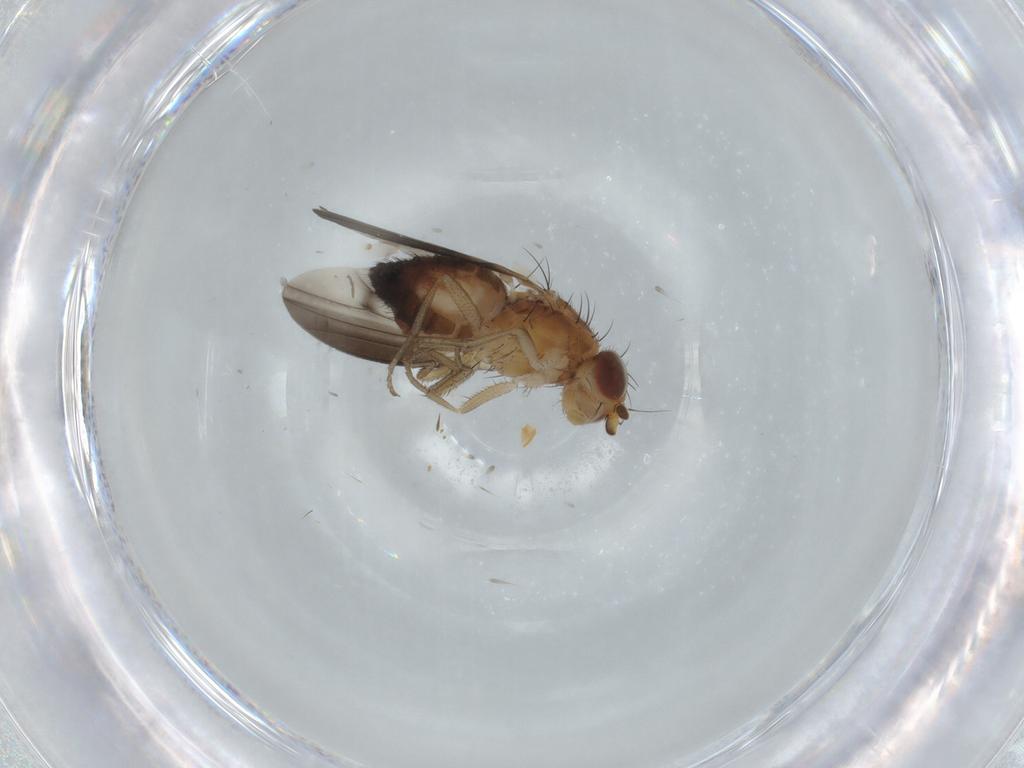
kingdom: Animalia
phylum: Arthropoda
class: Insecta
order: Diptera
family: Heleomyzidae
